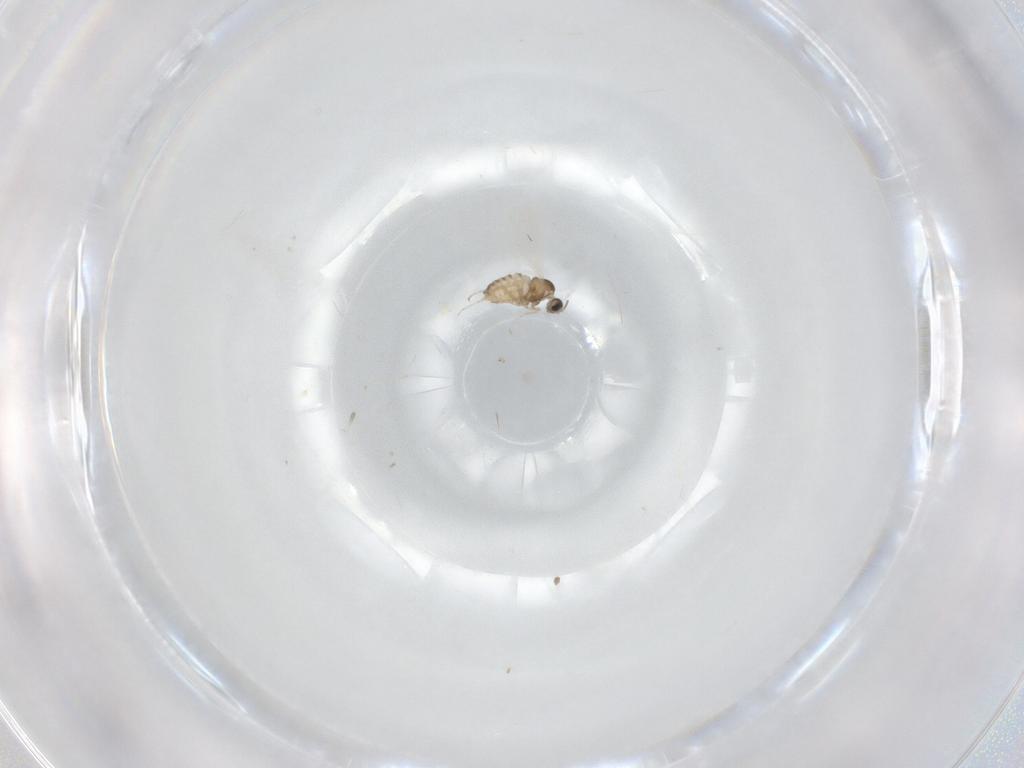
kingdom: Animalia
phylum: Arthropoda
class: Insecta
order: Diptera
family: Cecidomyiidae
